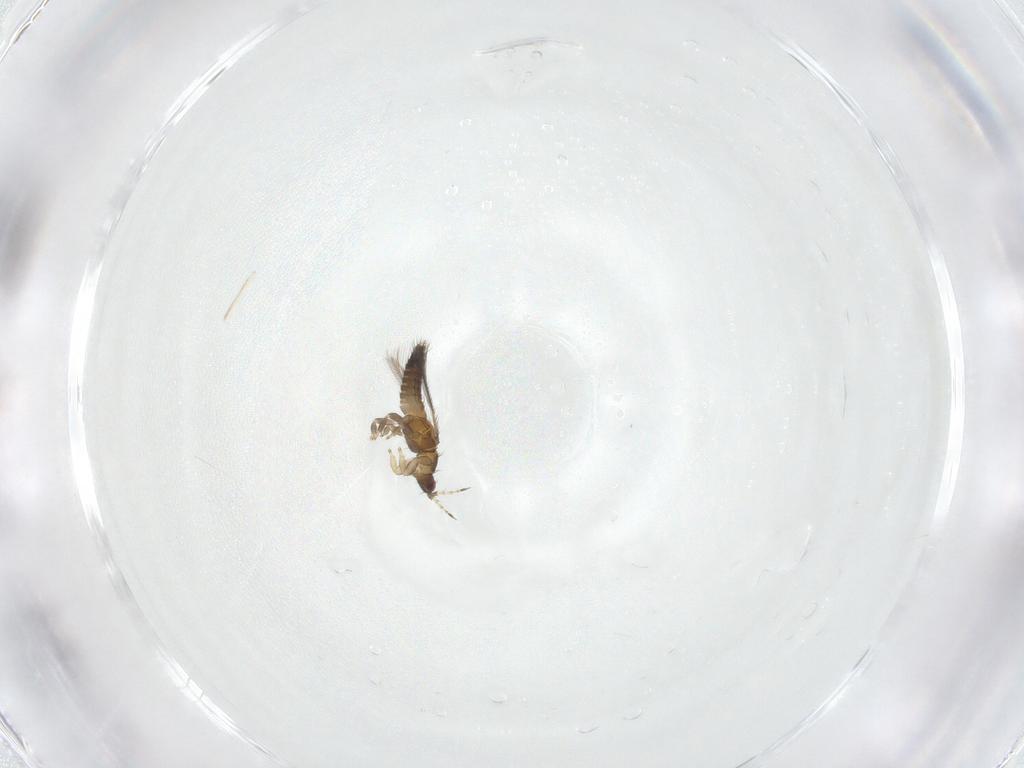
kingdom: Animalia
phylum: Arthropoda
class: Insecta
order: Thysanoptera
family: Thripidae
